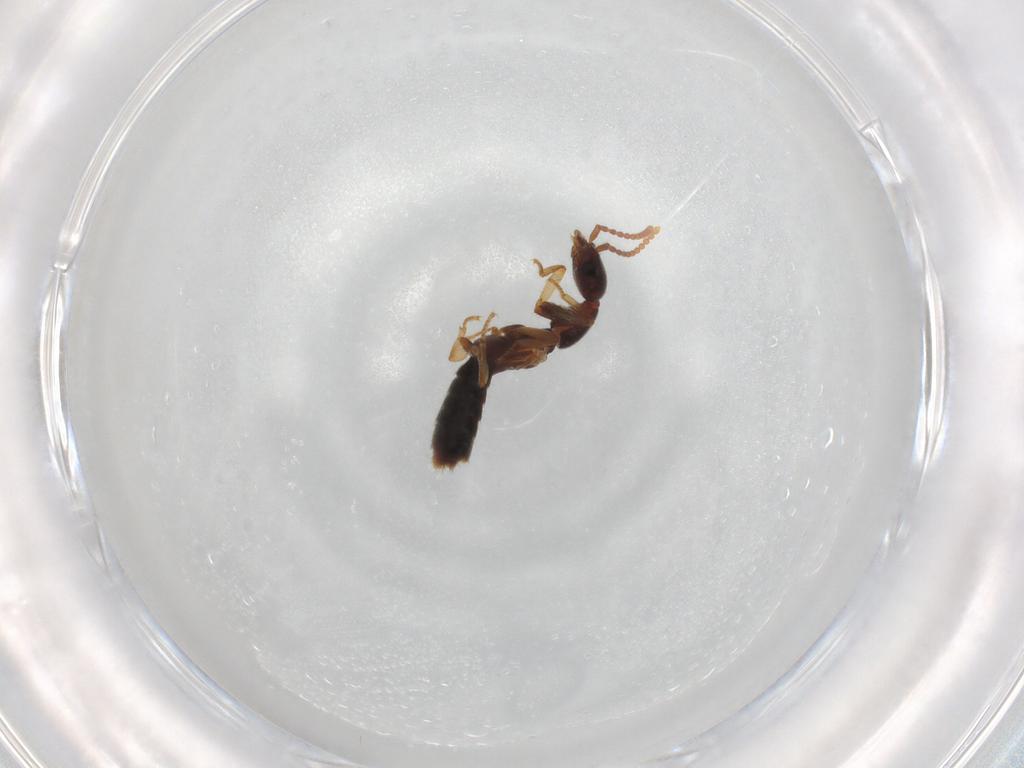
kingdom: Animalia
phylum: Arthropoda
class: Insecta
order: Coleoptera
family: Staphylinidae
